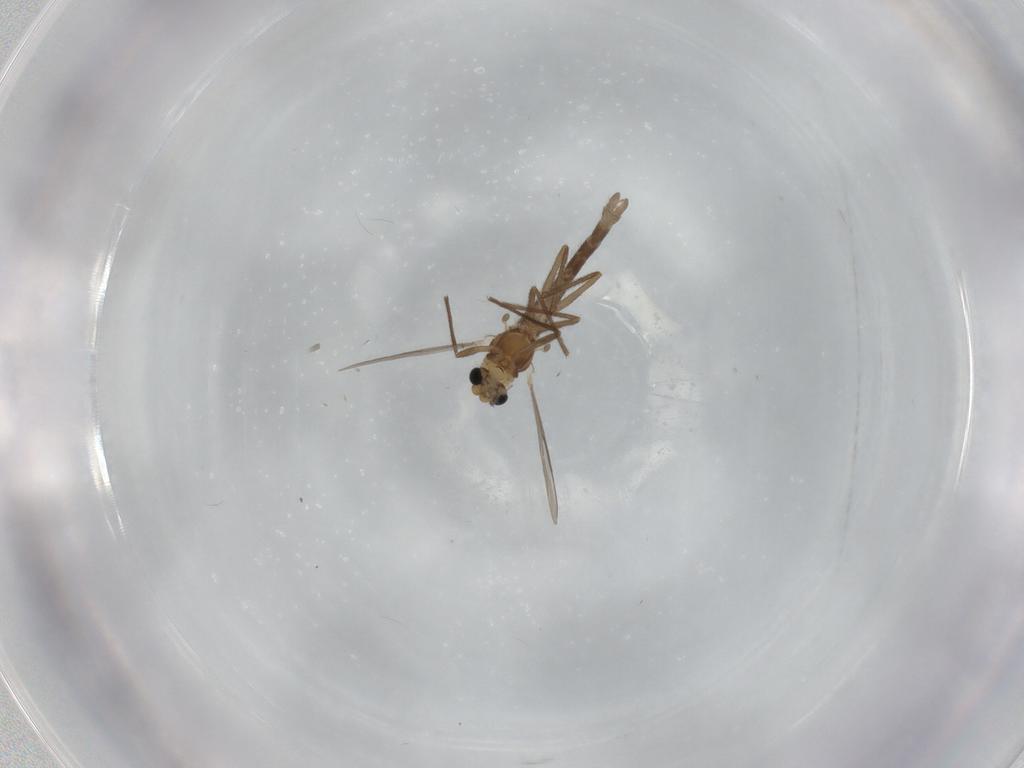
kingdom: Animalia
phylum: Arthropoda
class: Insecta
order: Diptera
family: Chironomidae
